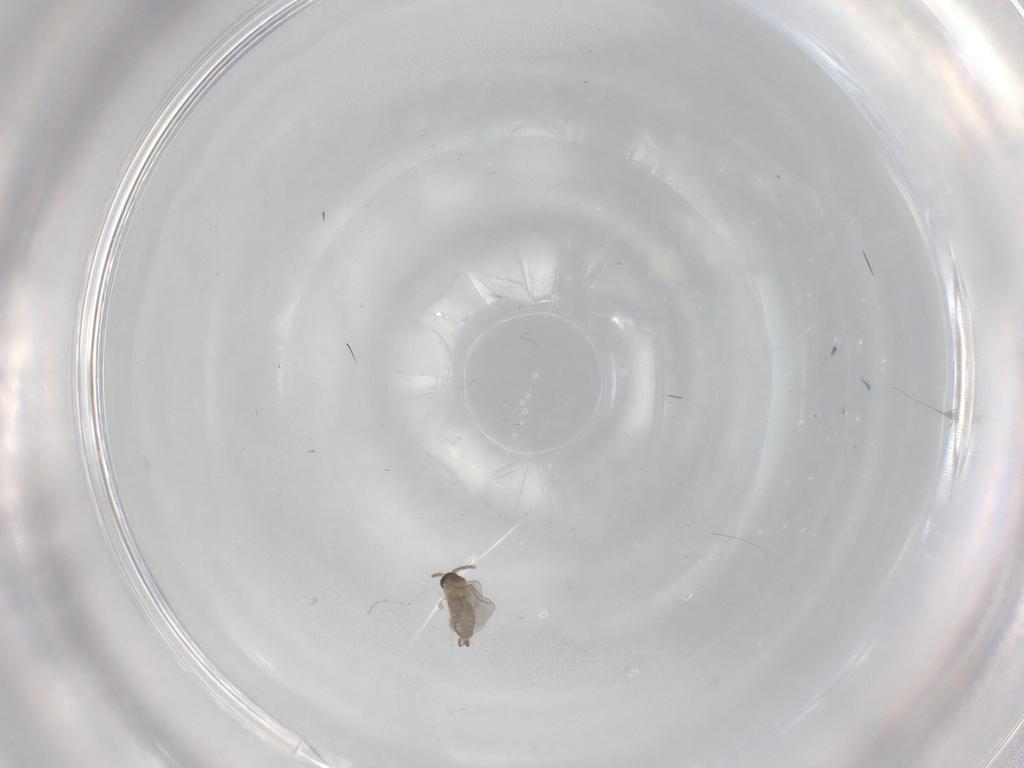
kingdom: Animalia
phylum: Arthropoda
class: Insecta
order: Diptera
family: Cecidomyiidae
